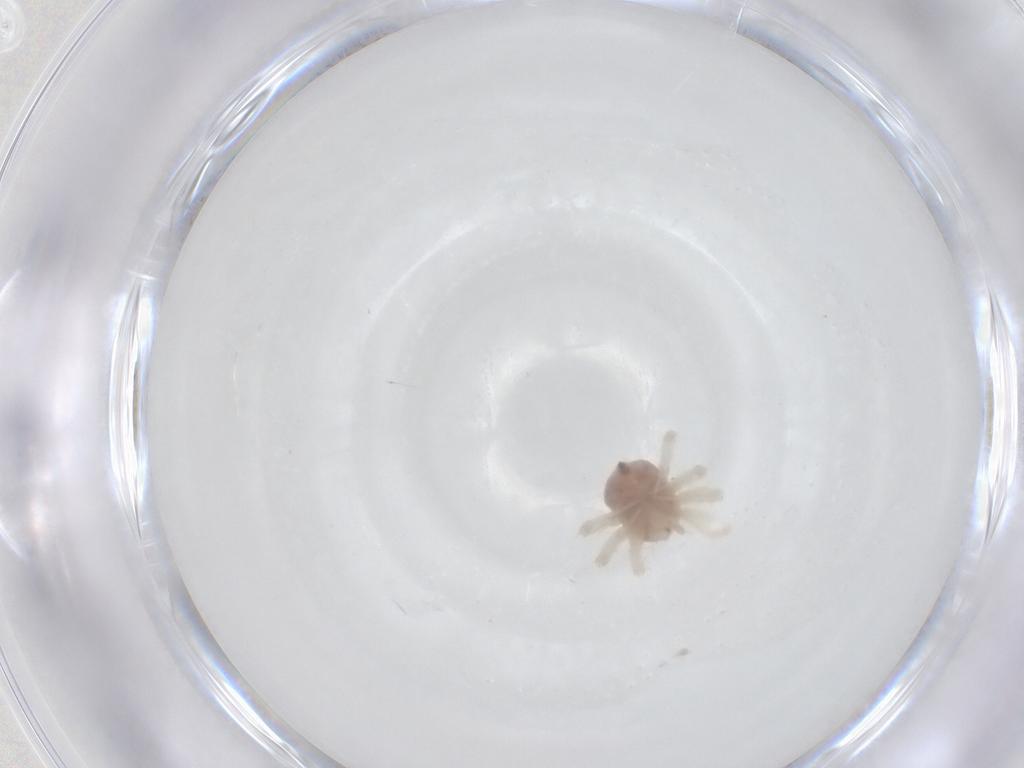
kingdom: Animalia
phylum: Arthropoda
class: Arachnida
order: Trombidiformes
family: Anystidae
